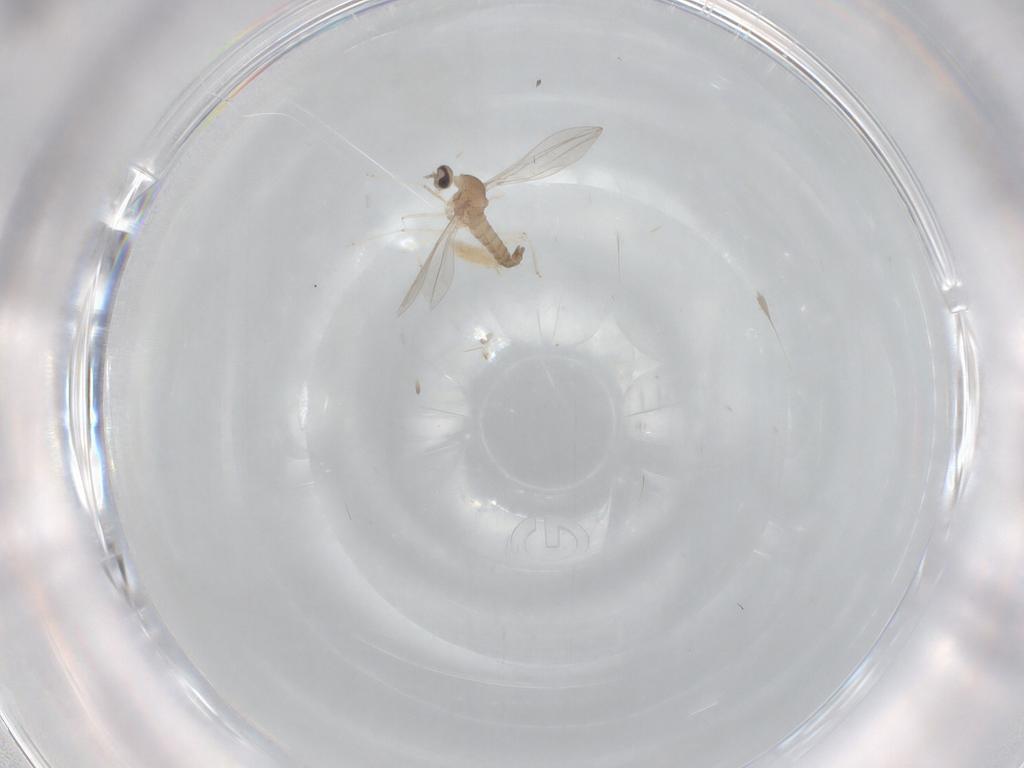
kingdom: Animalia
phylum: Arthropoda
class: Insecta
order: Diptera
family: Cecidomyiidae
